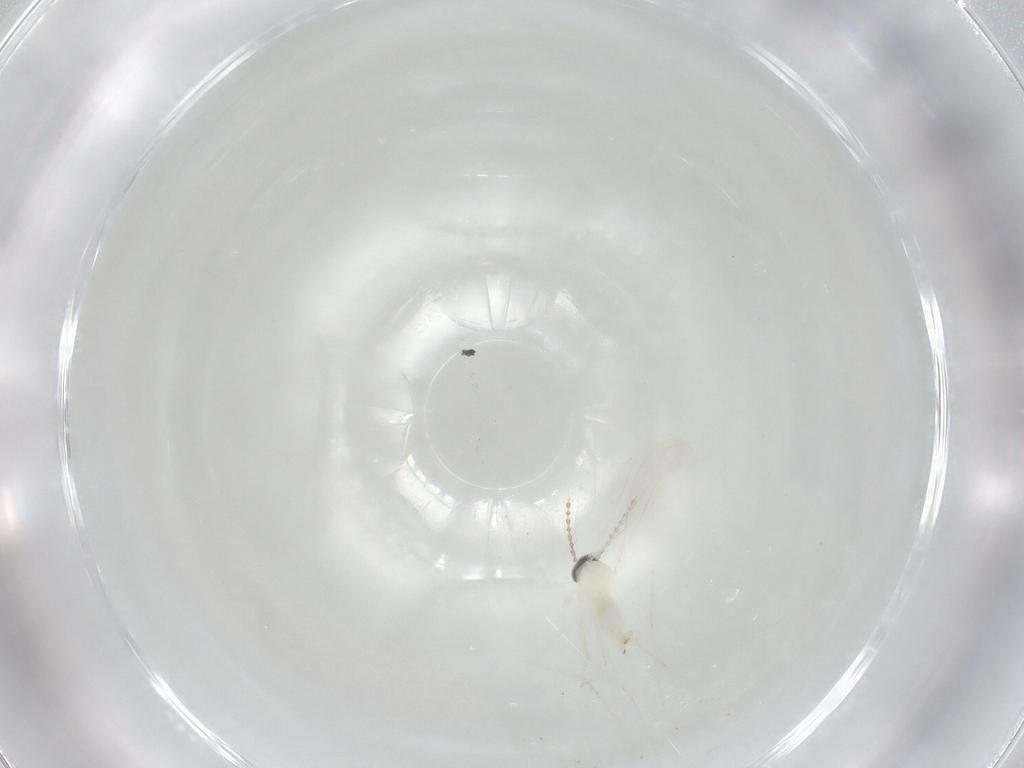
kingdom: Animalia
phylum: Arthropoda
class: Insecta
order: Diptera
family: Cecidomyiidae
